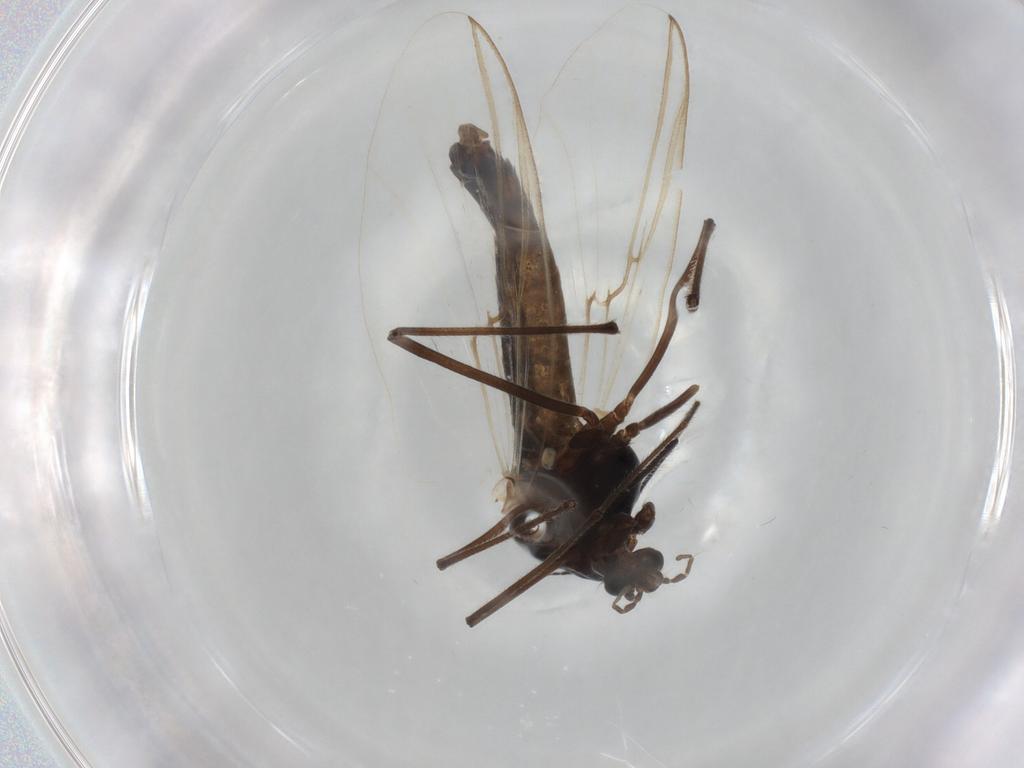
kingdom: Animalia
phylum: Arthropoda
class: Insecta
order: Diptera
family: Chironomidae
